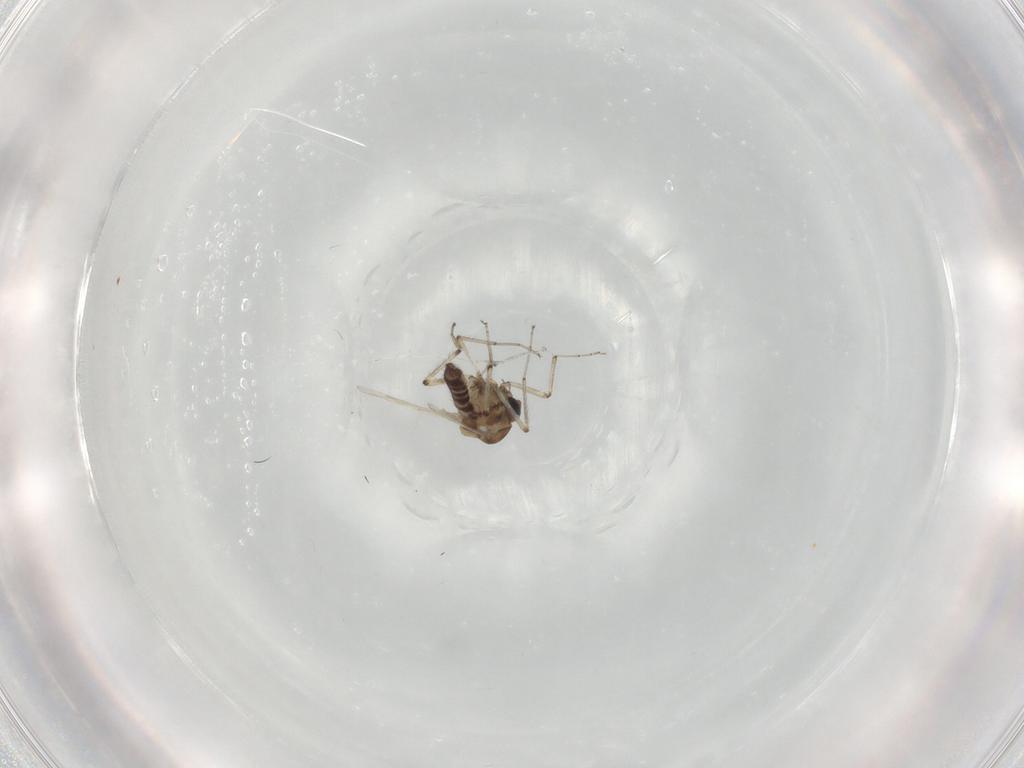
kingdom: Animalia
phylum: Arthropoda
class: Insecta
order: Diptera
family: Ceratopogonidae
